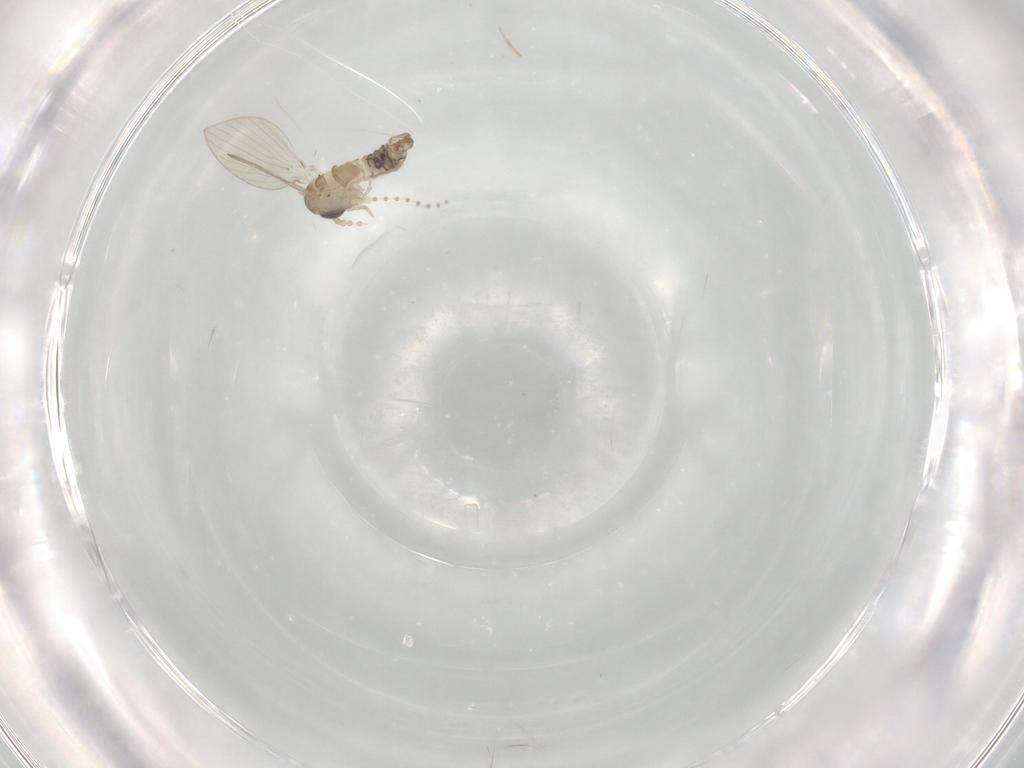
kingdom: Animalia
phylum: Arthropoda
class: Insecta
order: Diptera
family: Psychodidae
